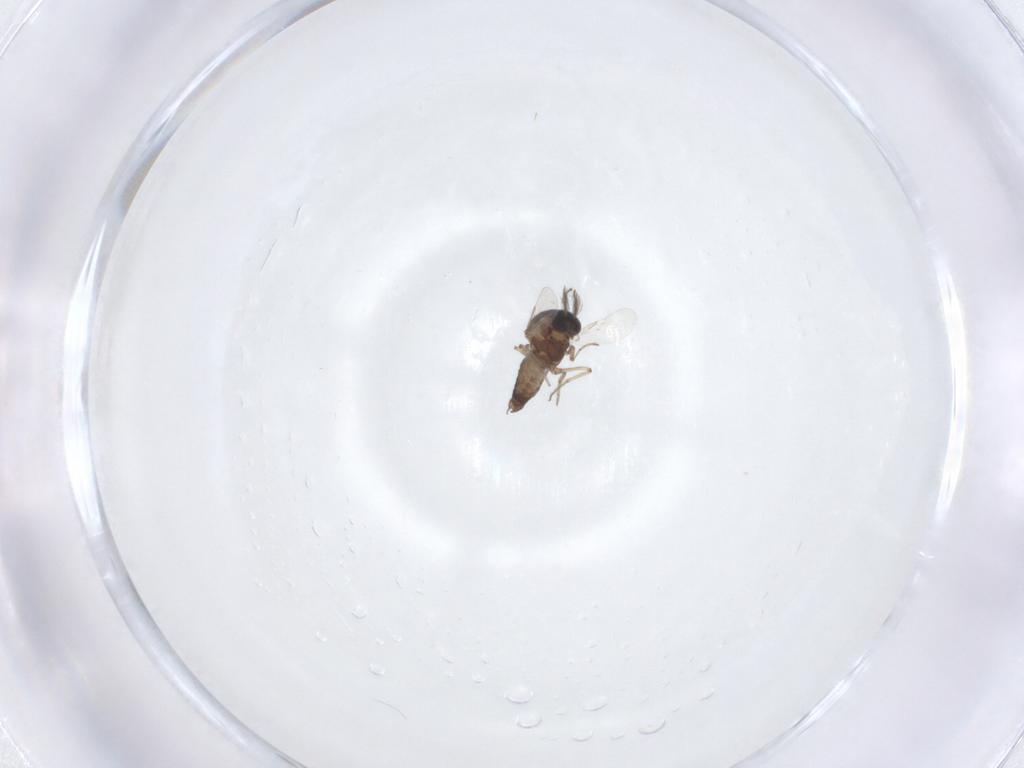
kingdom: Animalia
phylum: Arthropoda
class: Insecta
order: Diptera
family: Ceratopogonidae
